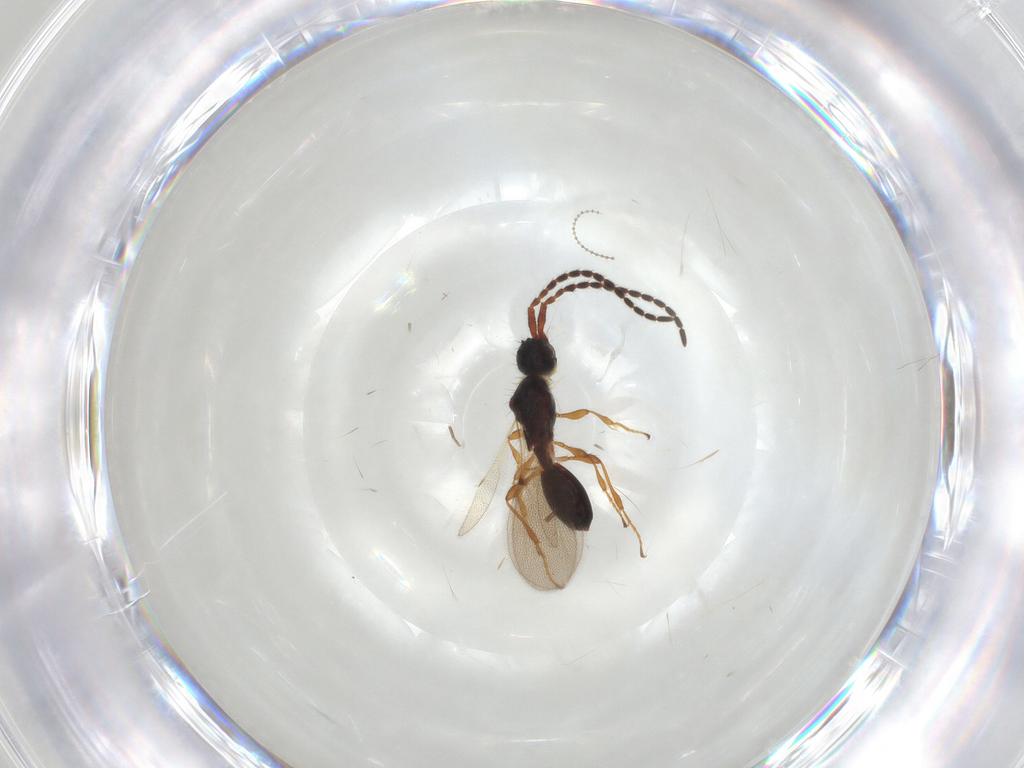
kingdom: Animalia
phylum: Arthropoda
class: Insecta
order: Hymenoptera
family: Diapriidae
